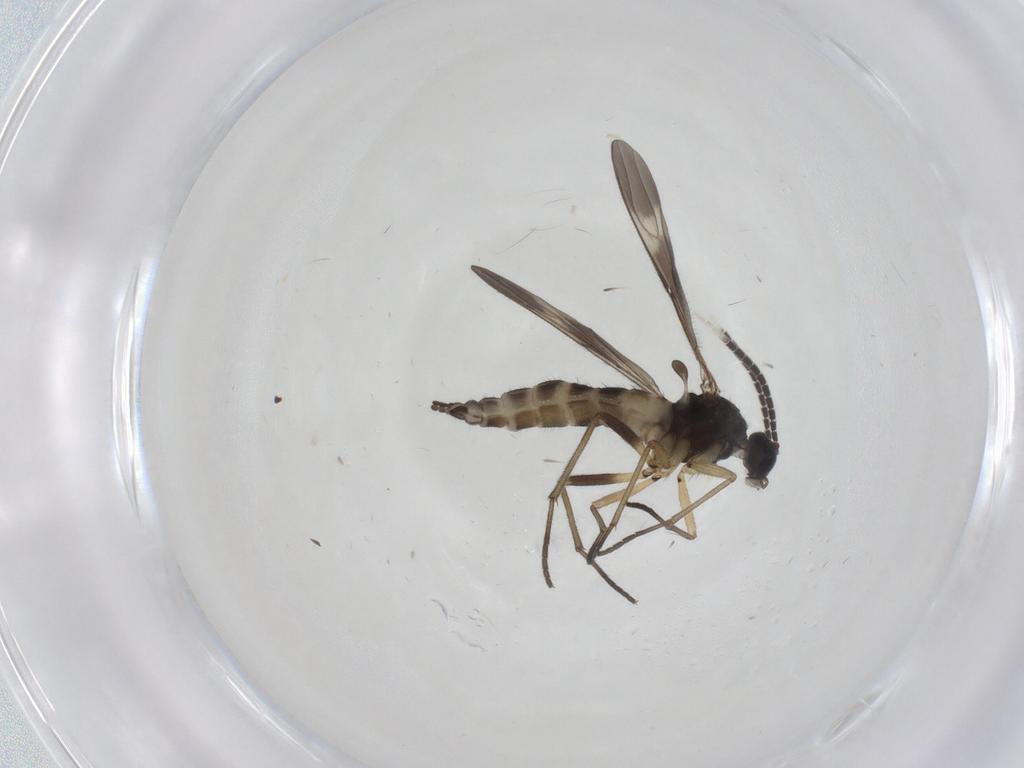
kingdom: Animalia
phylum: Arthropoda
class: Insecta
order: Diptera
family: Sciaridae
